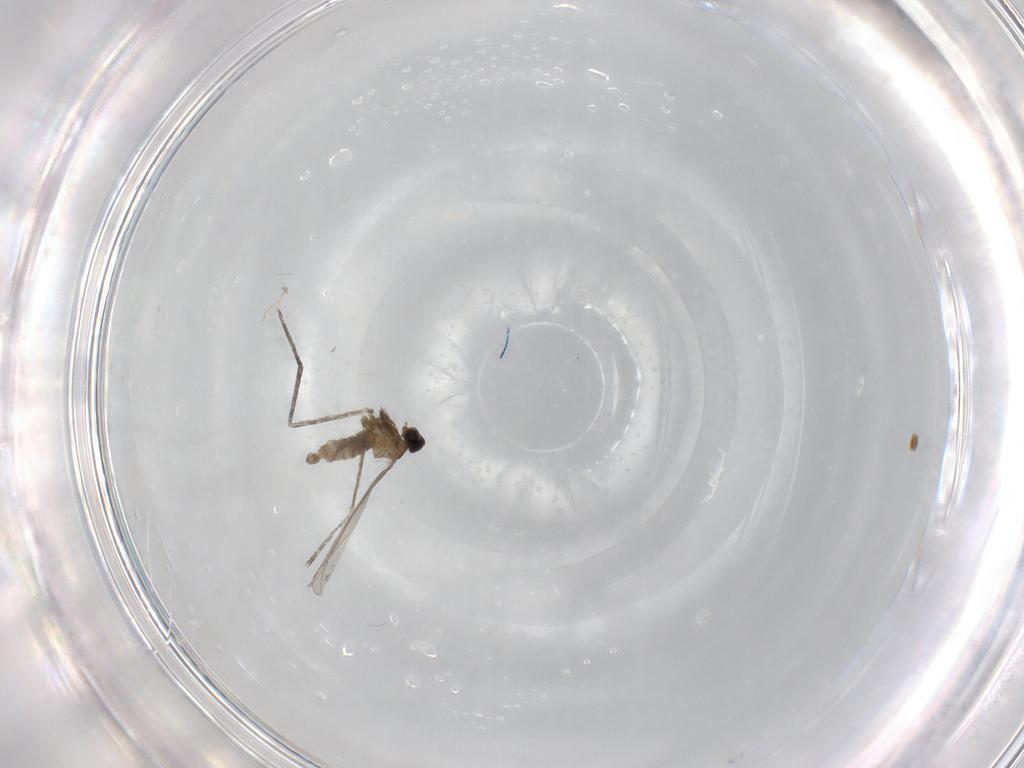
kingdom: Animalia
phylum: Arthropoda
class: Insecta
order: Diptera
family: Cecidomyiidae
